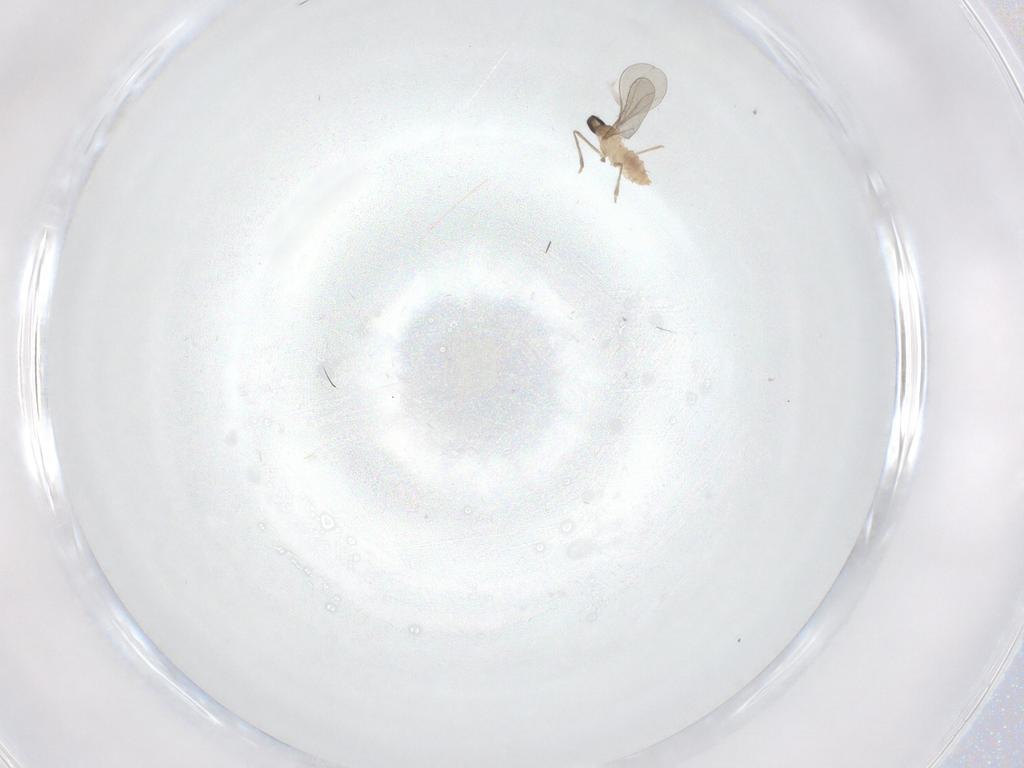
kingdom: Animalia
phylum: Arthropoda
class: Insecta
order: Diptera
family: Cecidomyiidae
